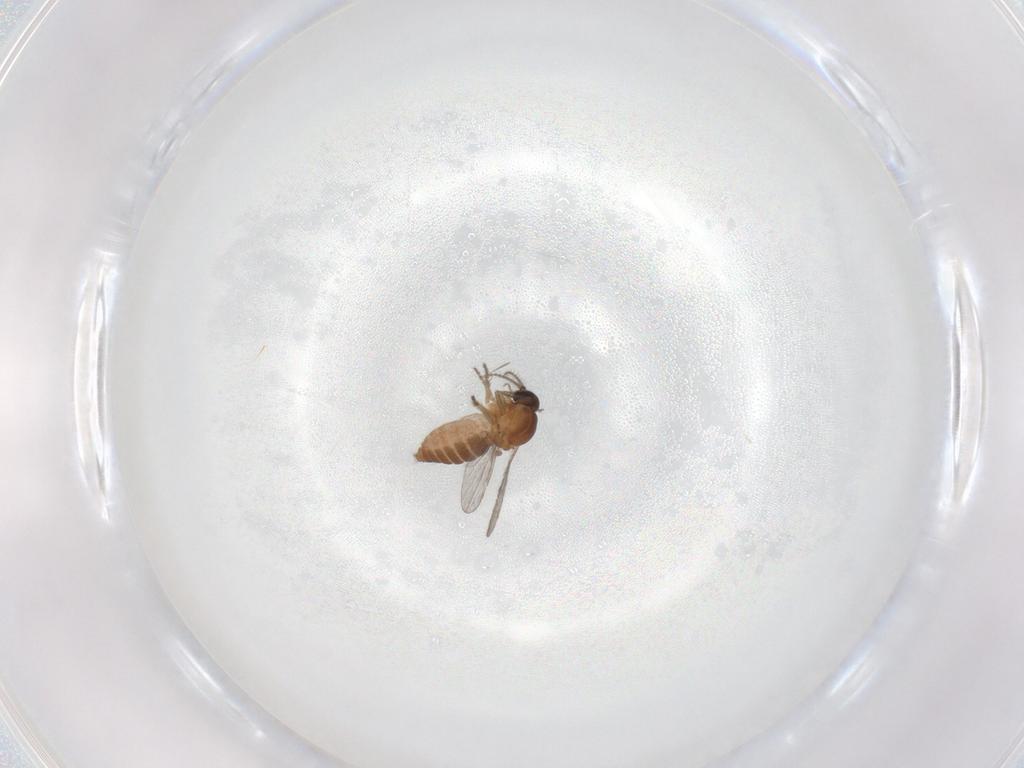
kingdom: Animalia
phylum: Arthropoda
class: Insecta
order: Diptera
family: Ceratopogonidae
